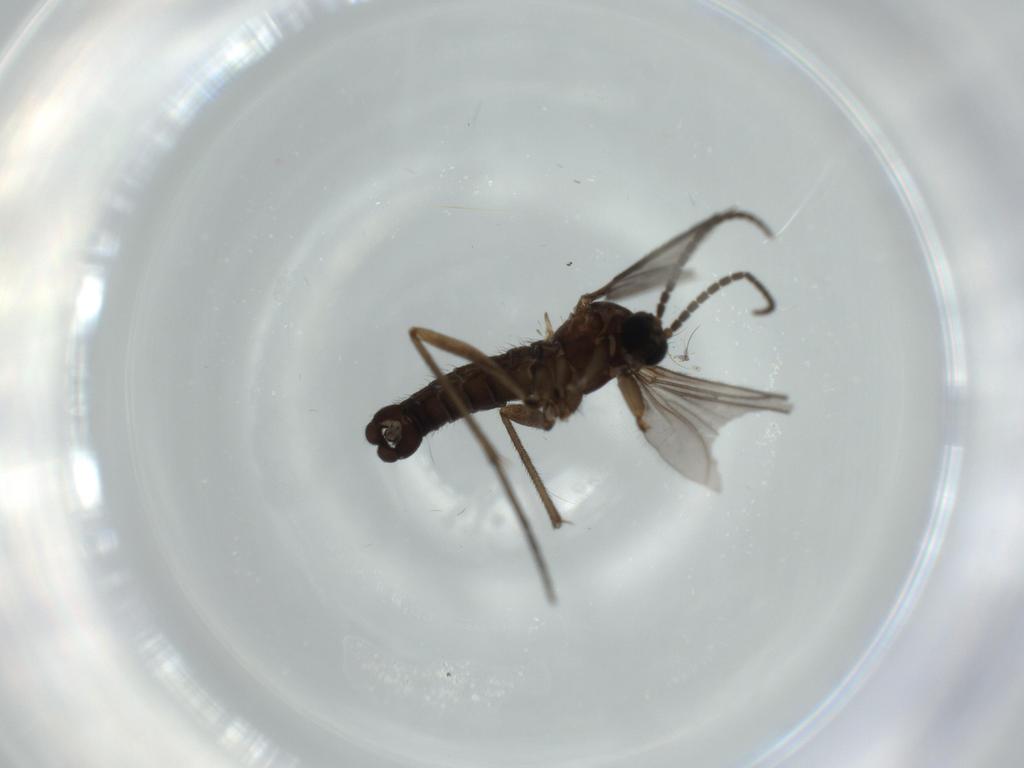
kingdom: Animalia
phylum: Arthropoda
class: Insecta
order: Diptera
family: Sciaridae
